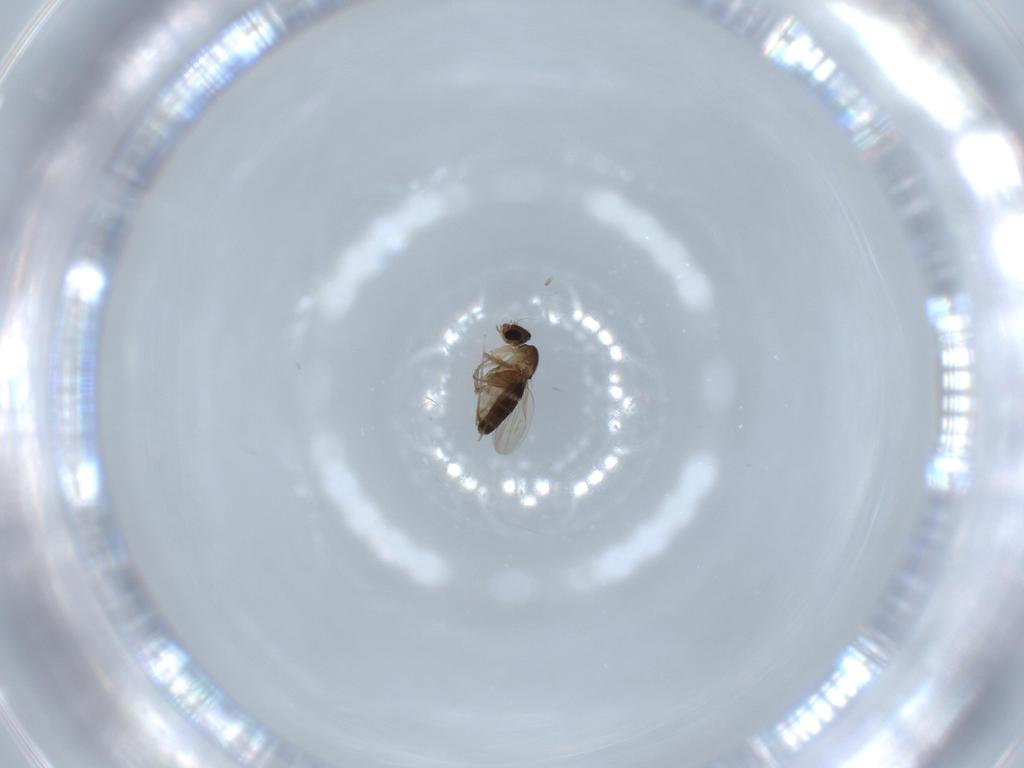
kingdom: Animalia
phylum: Arthropoda
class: Insecta
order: Diptera
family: Phoridae
